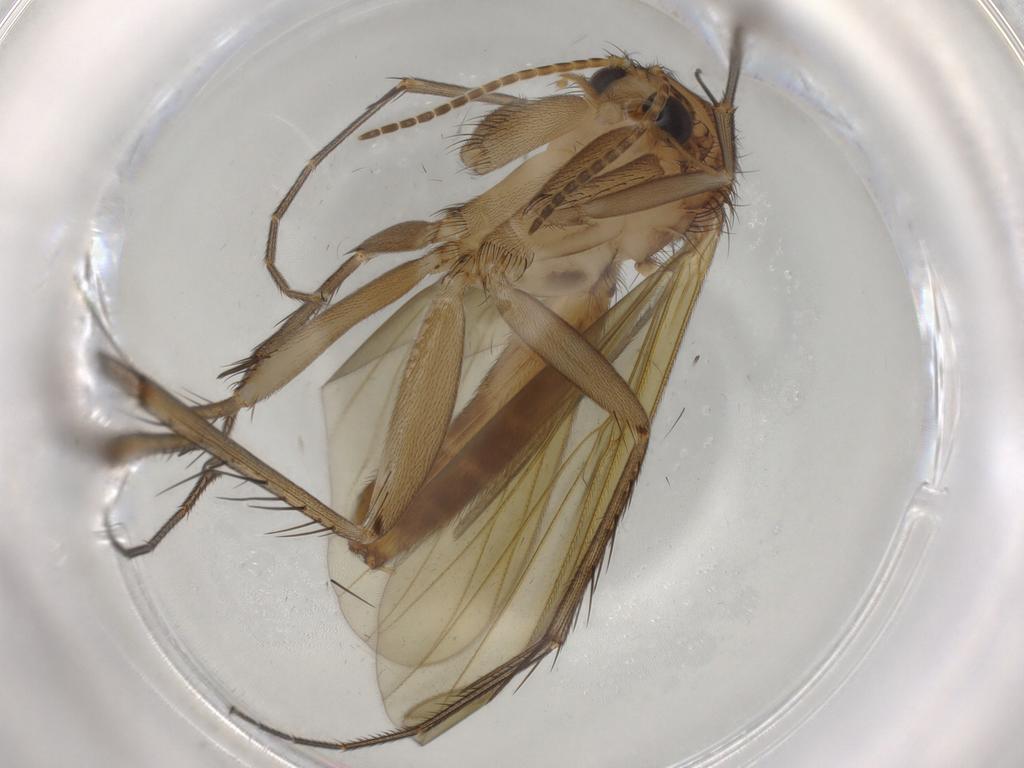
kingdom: Animalia
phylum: Arthropoda
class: Insecta
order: Diptera
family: Mycetophilidae
